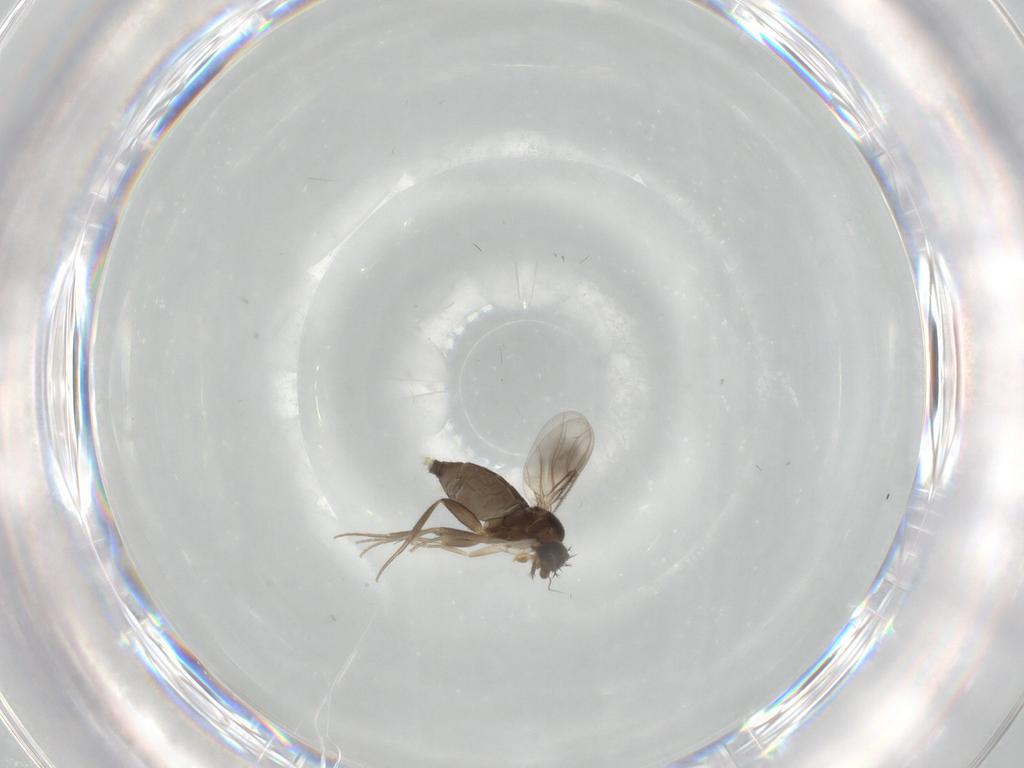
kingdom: Animalia
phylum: Arthropoda
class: Insecta
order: Diptera
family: Phoridae
